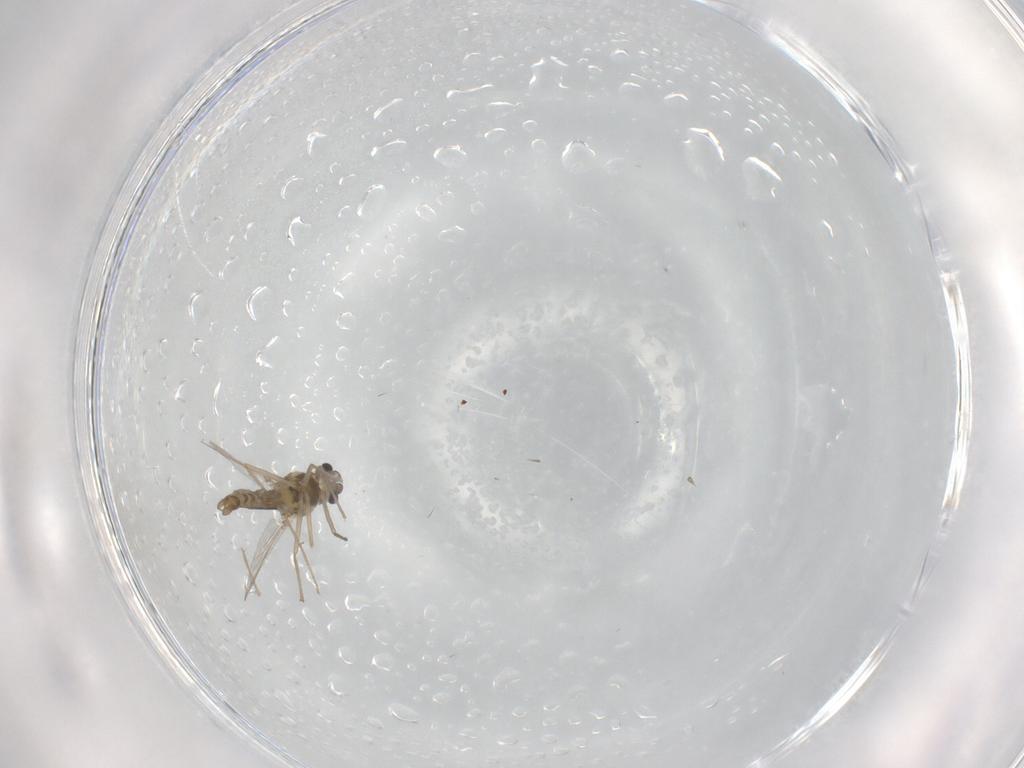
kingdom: Animalia
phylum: Arthropoda
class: Insecta
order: Diptera
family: Chironomidae
